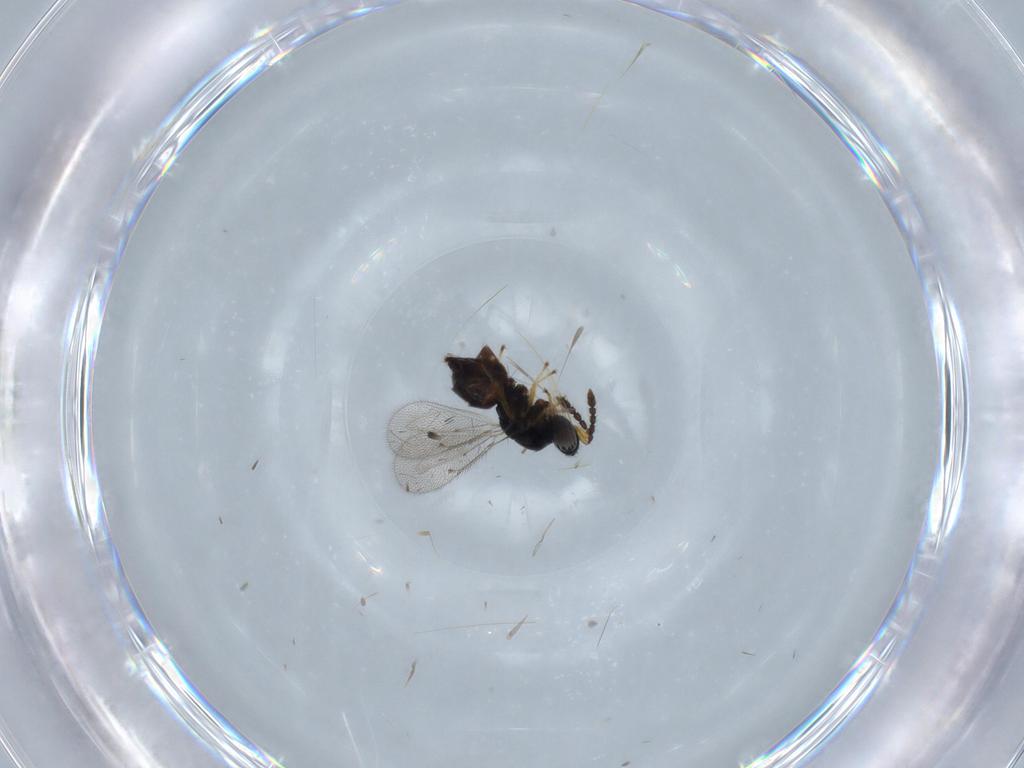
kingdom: Animalia
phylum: Arthropoda
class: Insecta
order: Hymenoptera
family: Eulophidae
